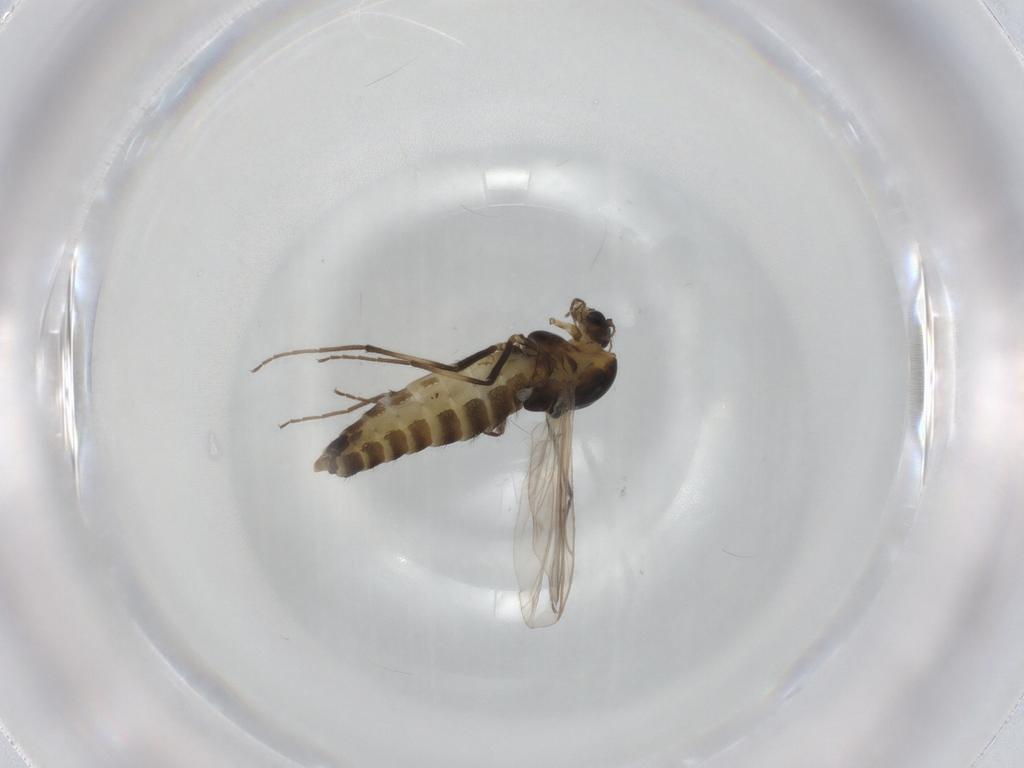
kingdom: Animalia
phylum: Arthropoda
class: Insecta
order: Diptera
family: Chironomidae
